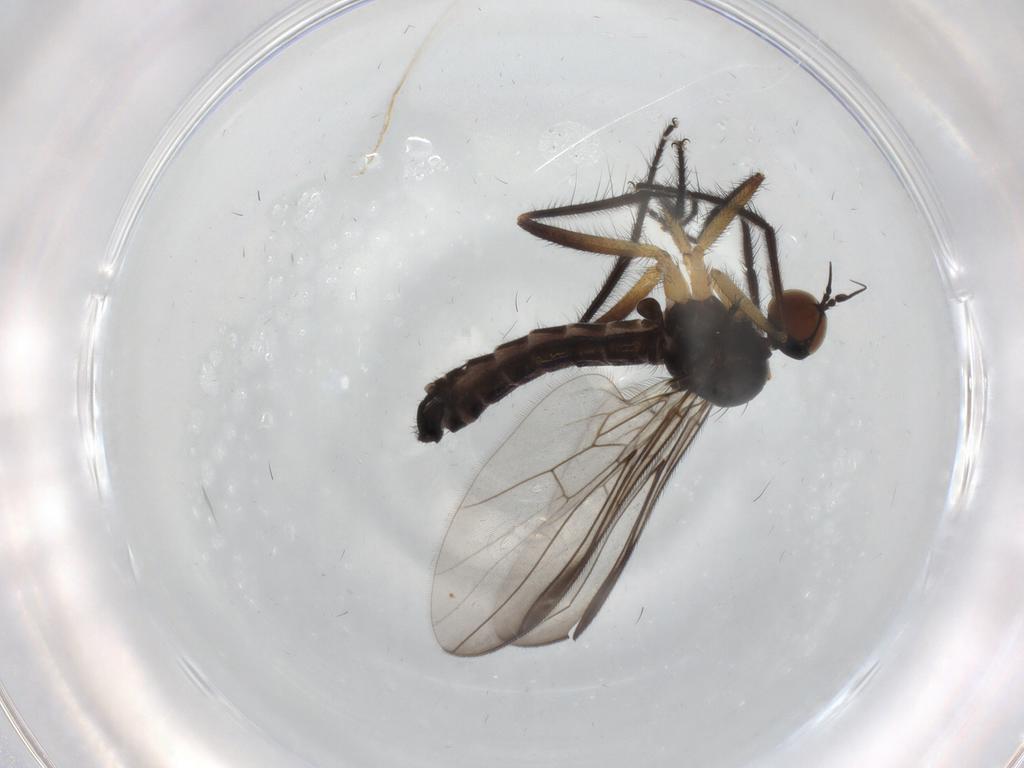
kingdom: Animalia
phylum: Arthropoda
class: Insecta
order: Diptera
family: Empididae
